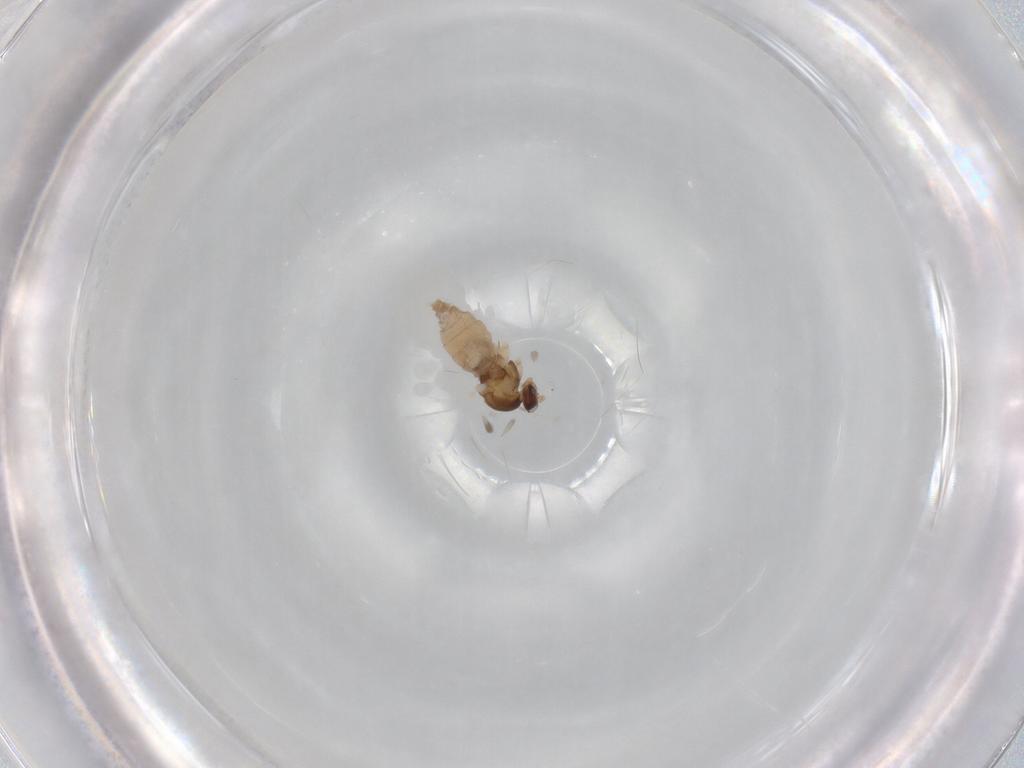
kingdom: Animalia
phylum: Arthropoda
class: Insecta
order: Diptera
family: Cecidomyiidae
